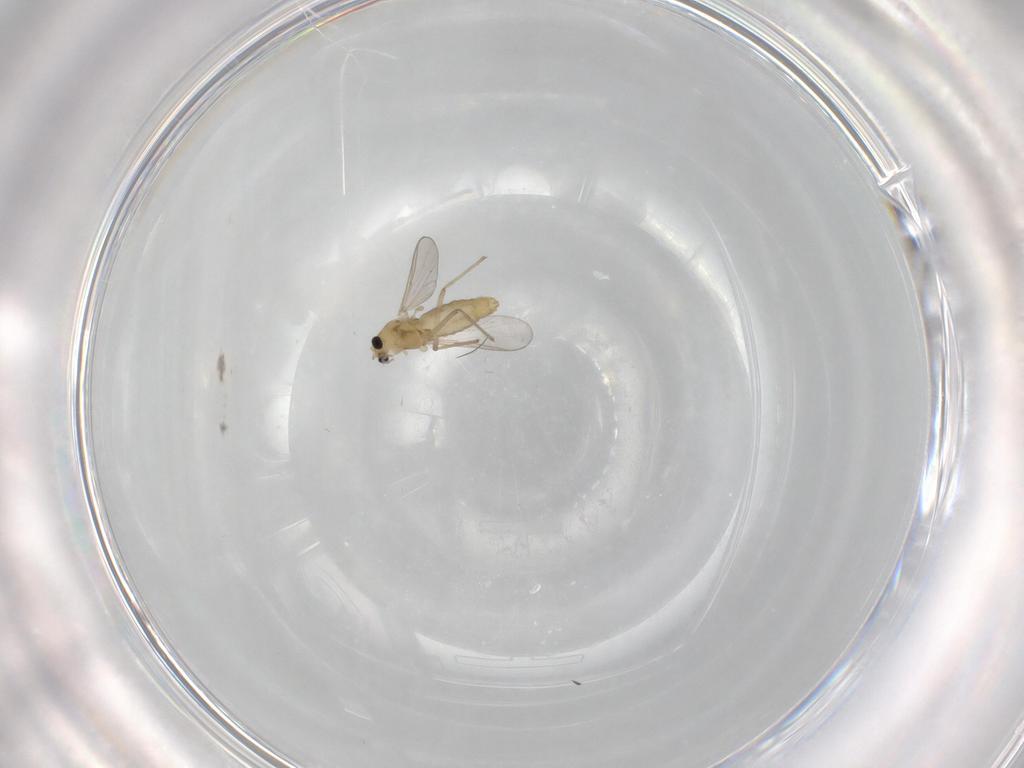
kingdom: Animalia
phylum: Arthropoda
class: Insecta
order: Diptera
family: Chironomidae
